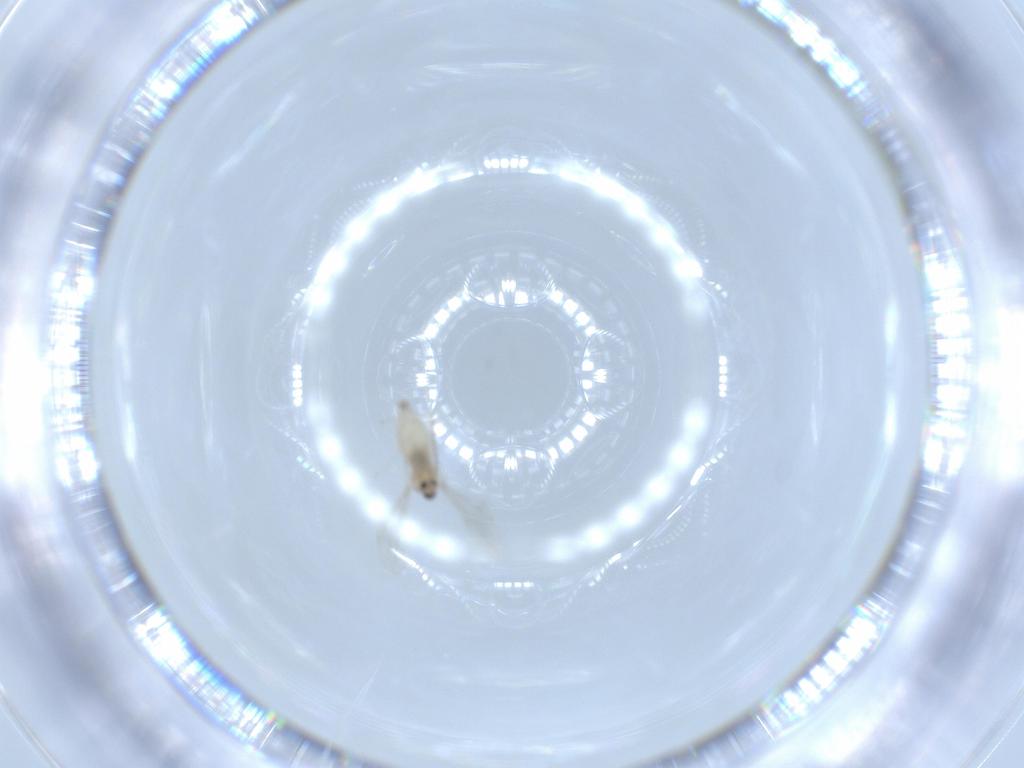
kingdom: Animalia
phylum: Arthropoda
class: Insecta
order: Diptera
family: Cecidomyiidae
